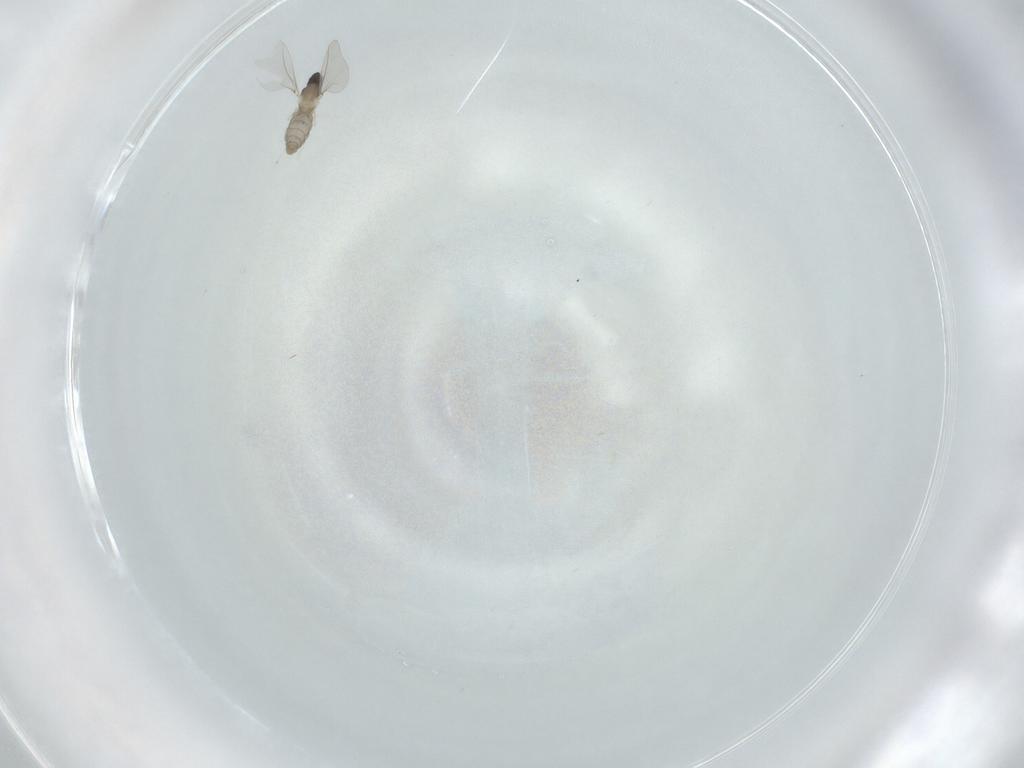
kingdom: Animalia
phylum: Arthropoda
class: Insecta
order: Diptera
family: Cecidomyiidae
